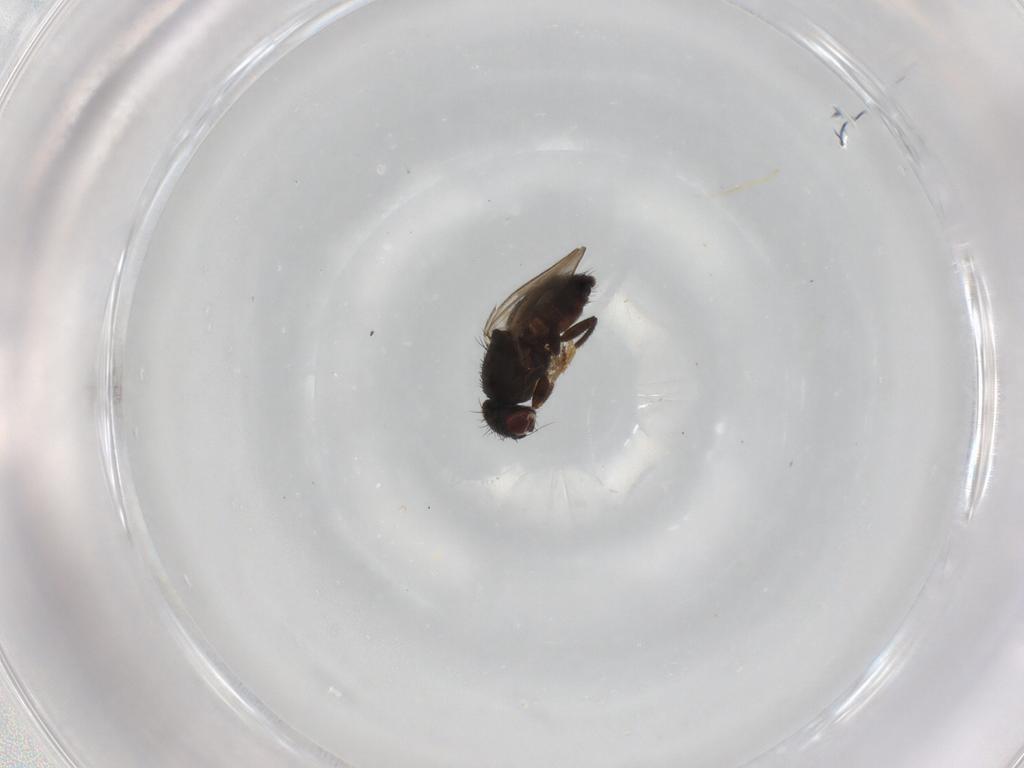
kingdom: Animalia
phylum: Arthropoda
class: Insecta
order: Diptera
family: Milichiidae
